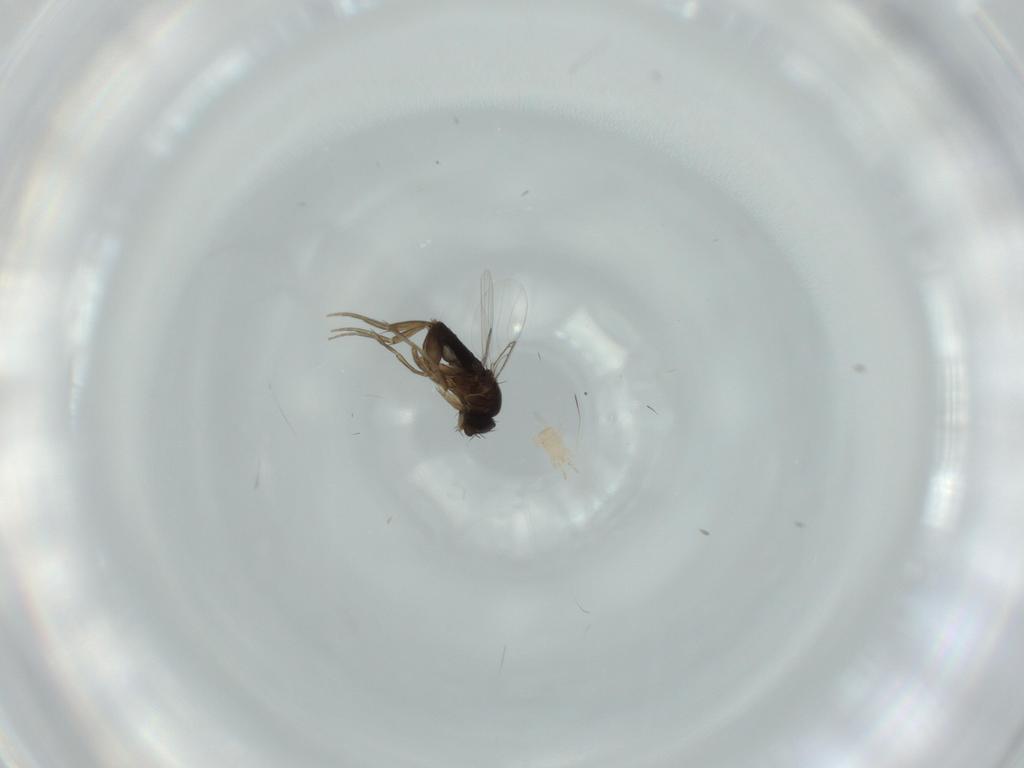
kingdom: Animalia
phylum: Arthropoda
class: Insecta
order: Diptera
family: Phoridae
